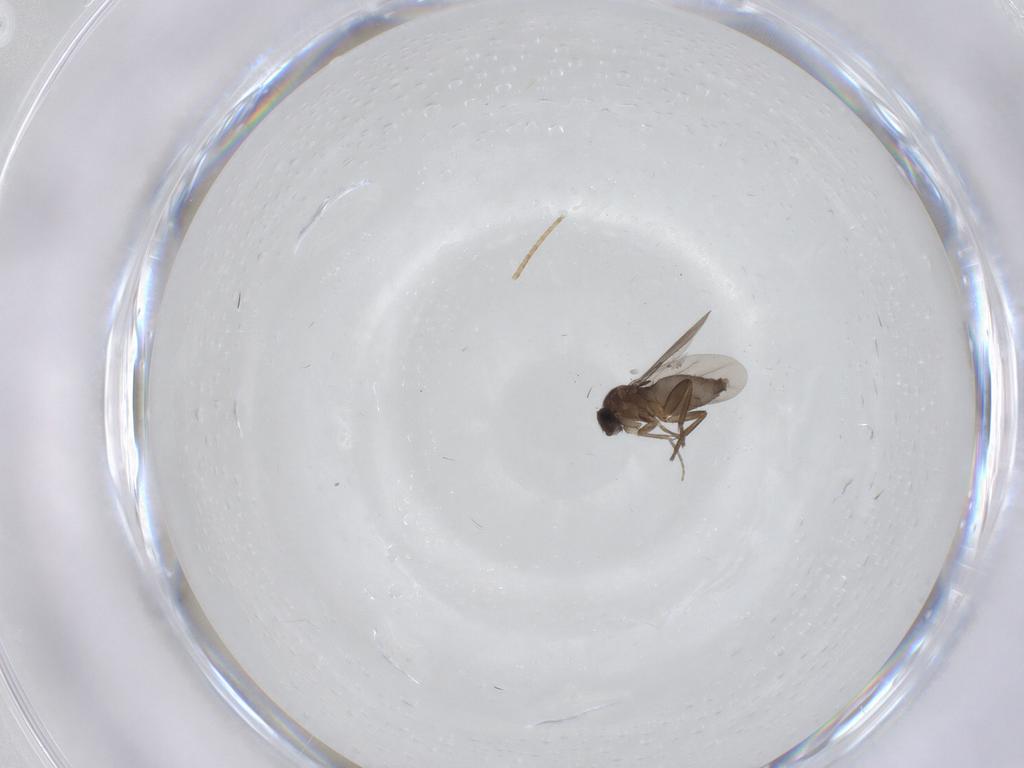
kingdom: Animalia
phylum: Arthropoda
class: Insecta
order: Diptera
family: Phoridae
